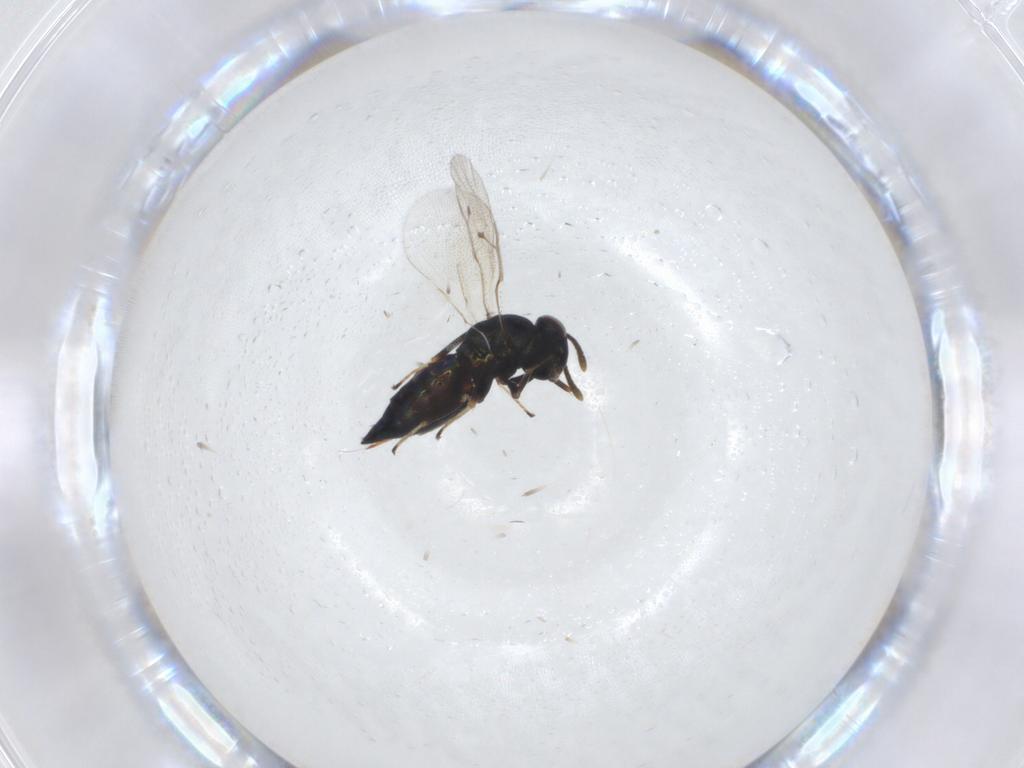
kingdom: Animalia
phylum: Arthropoda
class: Insecta
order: Hymenoptera
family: Pteromalidae
